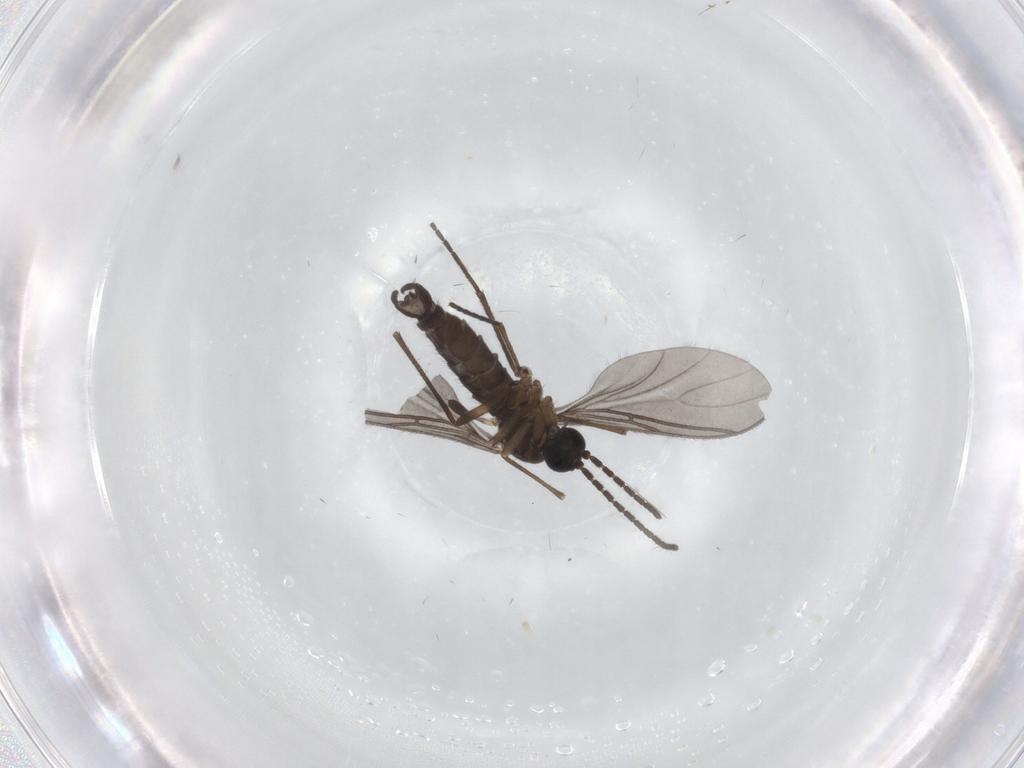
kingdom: Animalia
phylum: Arthropoda
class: Insecta
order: Diptera
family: Sciaridae
